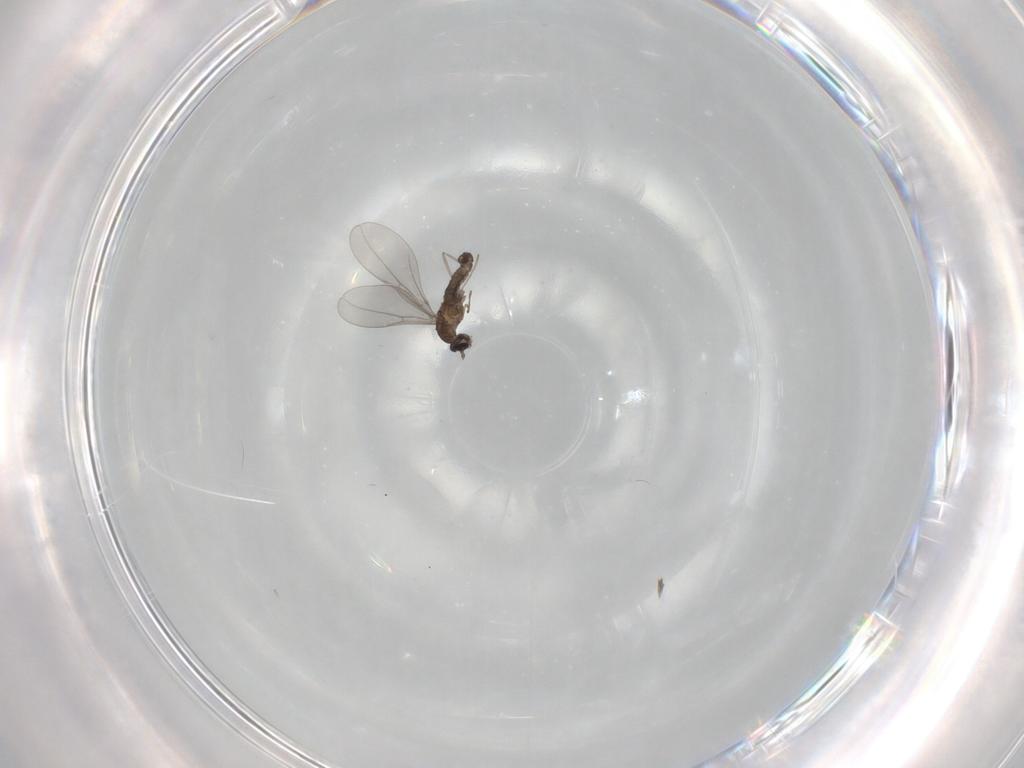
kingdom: Animalia
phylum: Arthropoda
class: Insecta
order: Diptera
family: Cecidomyiidae
